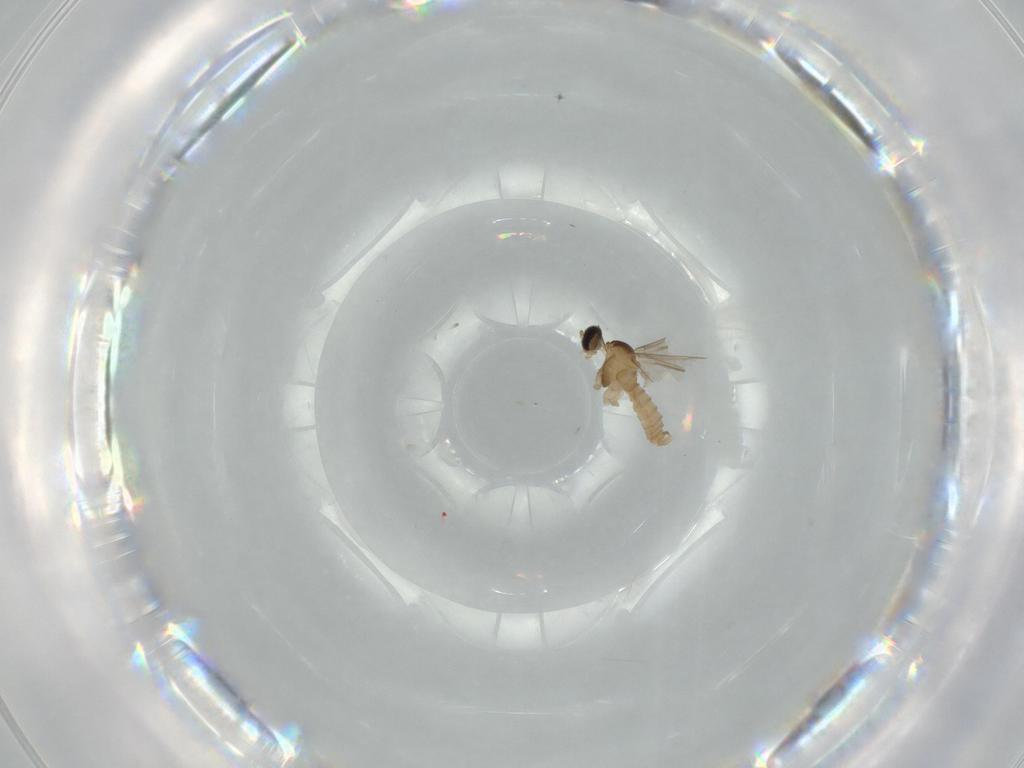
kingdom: Animalia
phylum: Arthropoda
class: Insecta
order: Diptera
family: Cecidomyiidae
